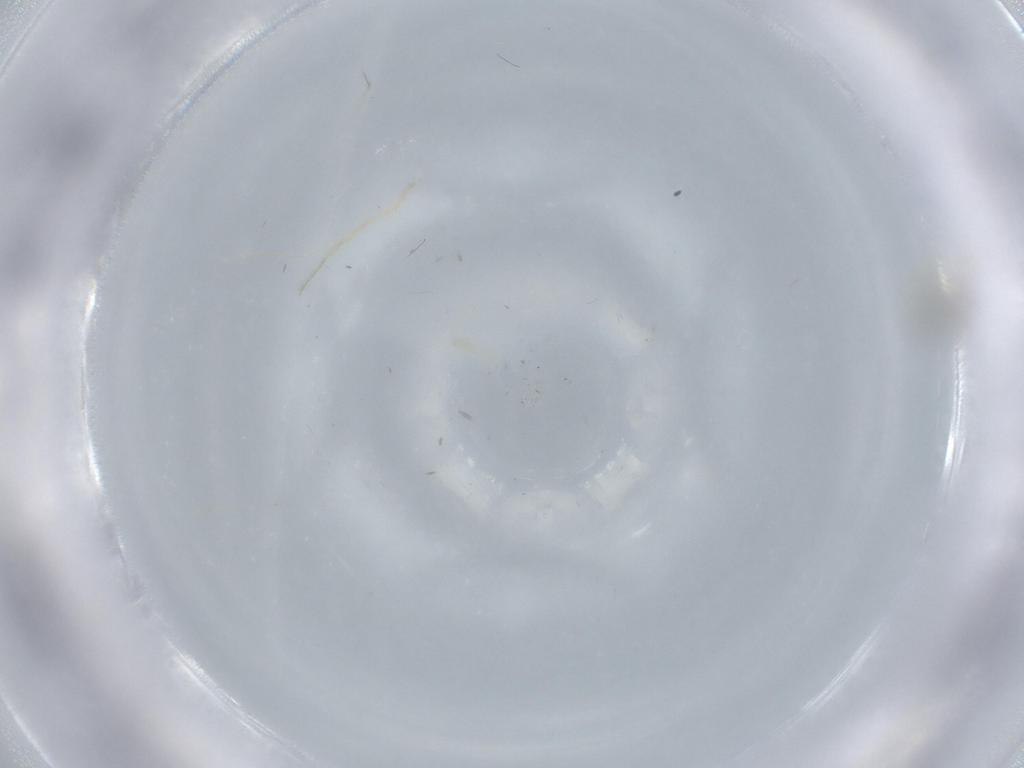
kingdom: Animalia
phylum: Arthropoda
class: Insecta
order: Diptera
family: Cecidomyiidae
